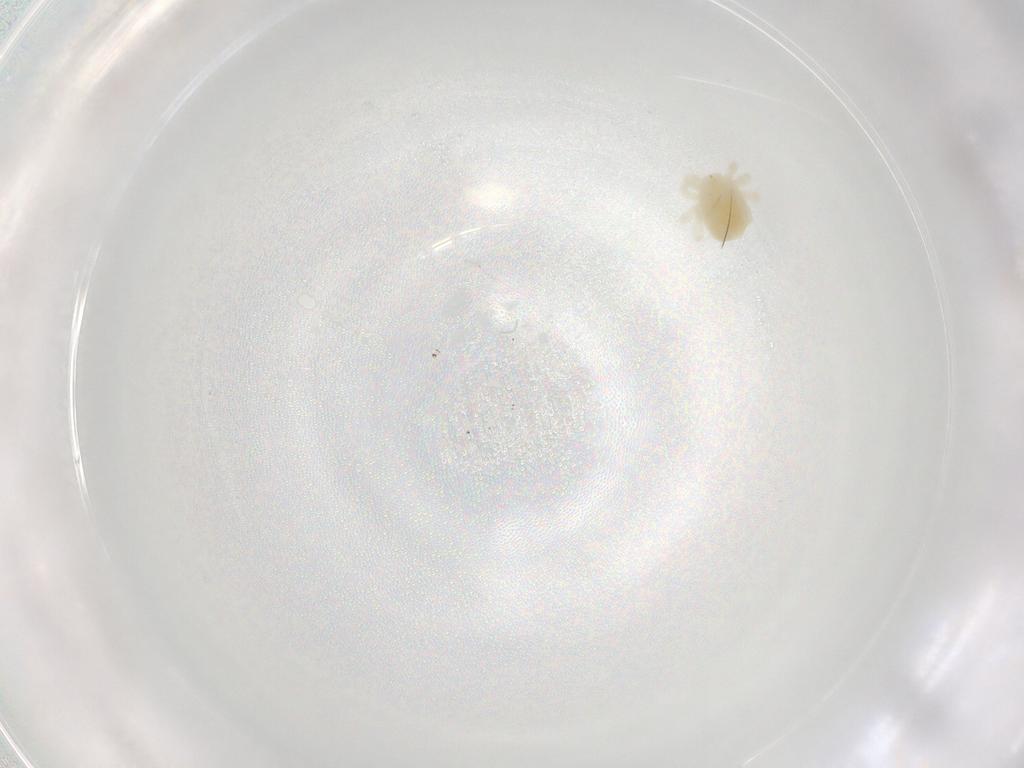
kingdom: Animalia
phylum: Arthropoda
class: Arachnida
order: Trombidiformes
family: Anystidae
